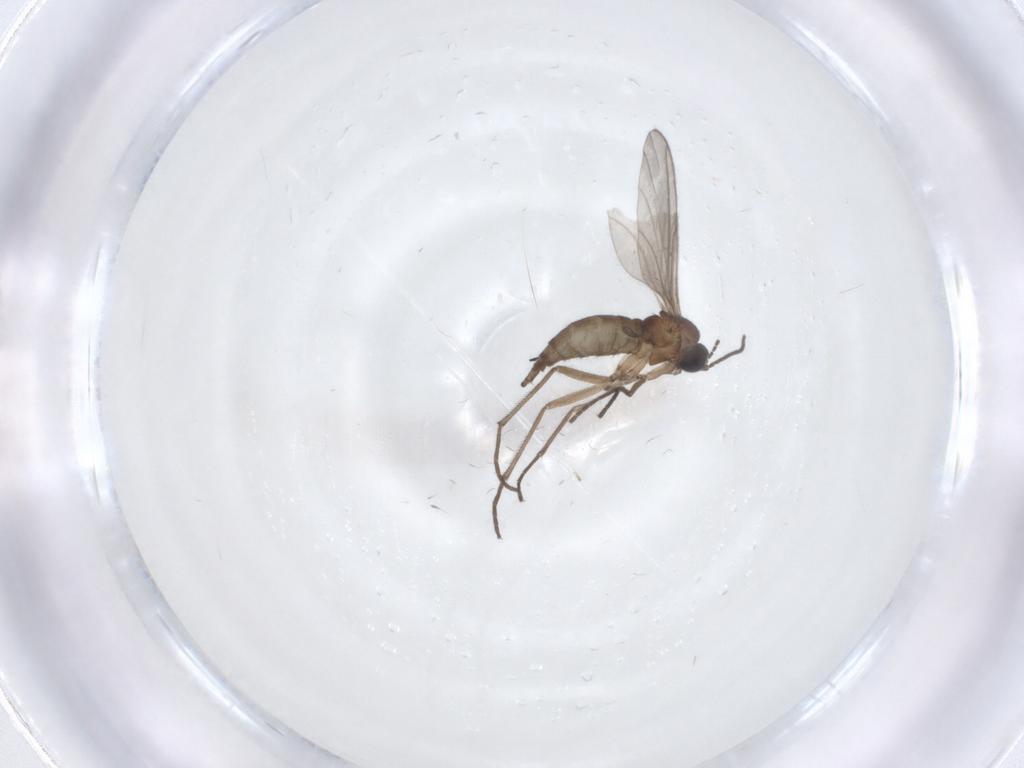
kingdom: Animalia
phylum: Arthropoda
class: Insecta
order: Diptera
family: Sciaridae
